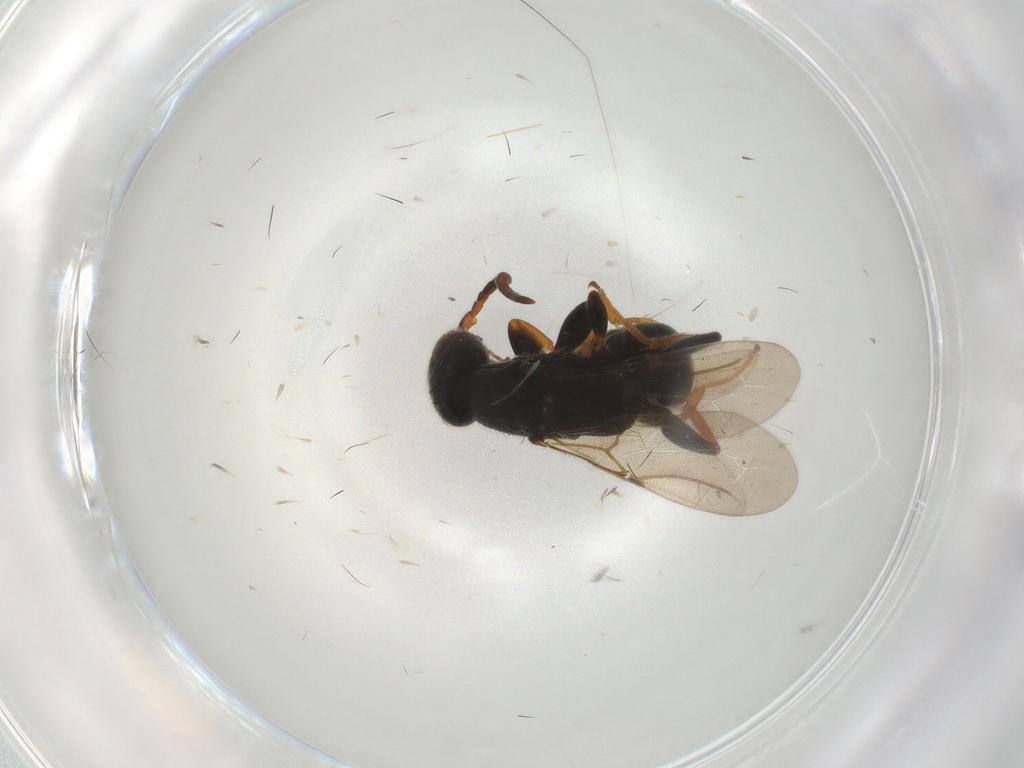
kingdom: Animalia
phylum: Arthropoda
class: Insecta
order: Hymenoptera
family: Bethylidae
